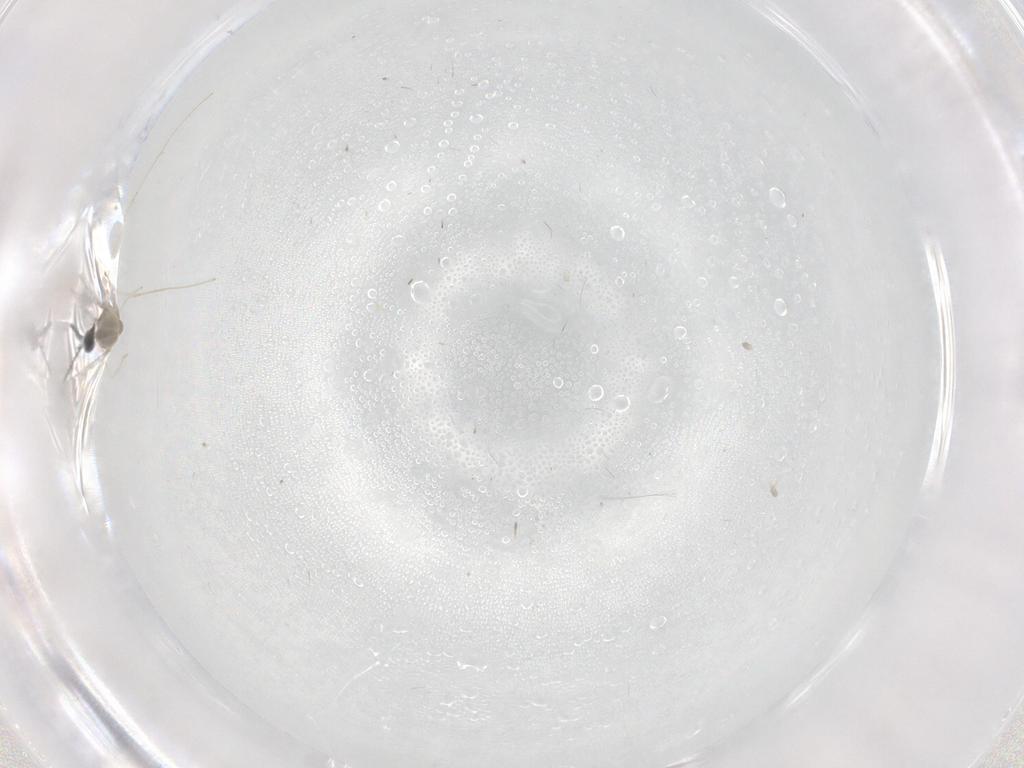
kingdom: Animalia
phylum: Arthropoda
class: Insecta
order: Diptera
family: Cecidomyiidae
